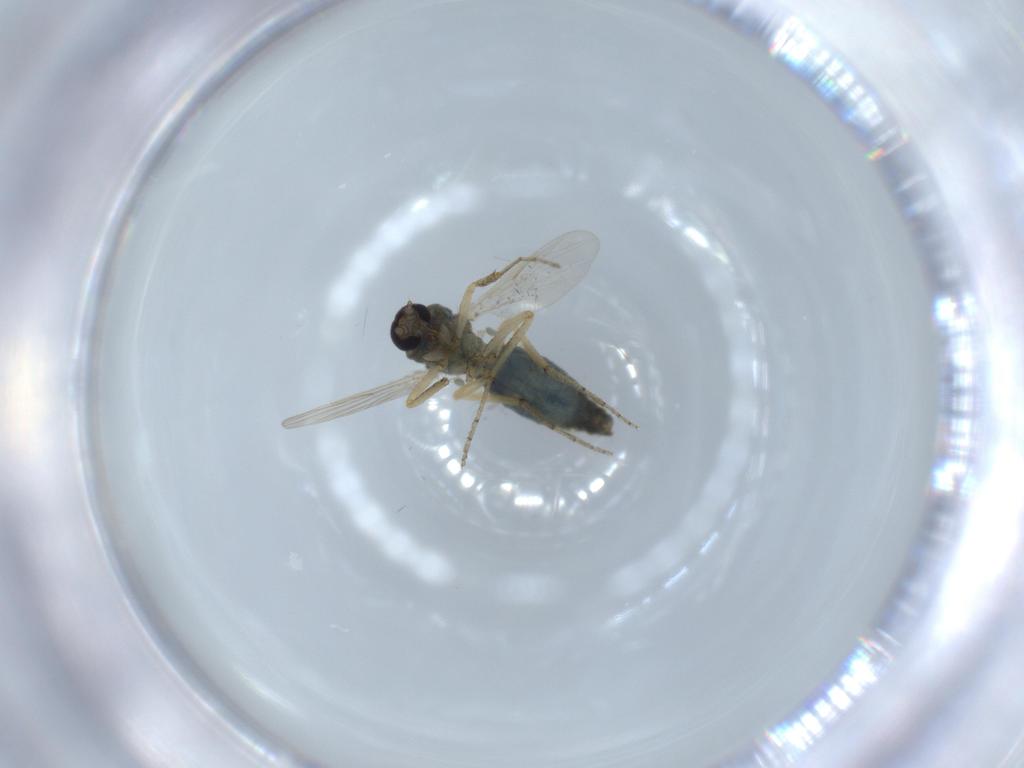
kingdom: Animalia
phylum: Arthropoda
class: Insecta
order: Diptera
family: Ceratopogonidae
